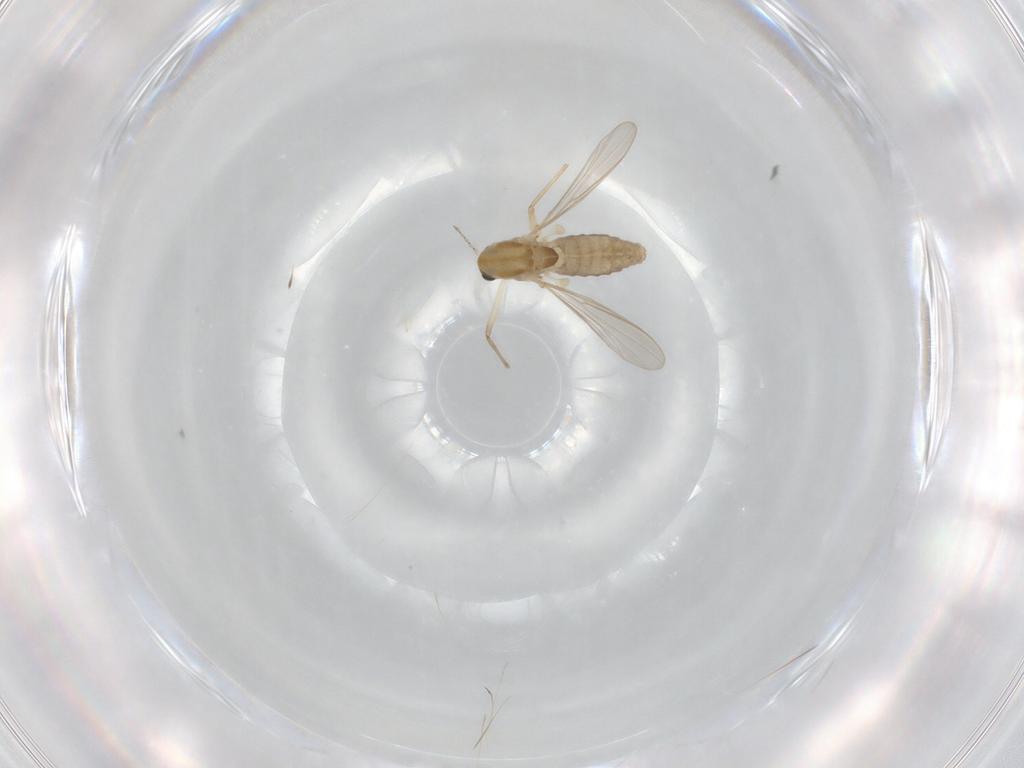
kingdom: Animalia
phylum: Arthropoda
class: Insecta
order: Diptera
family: Chironomidae
